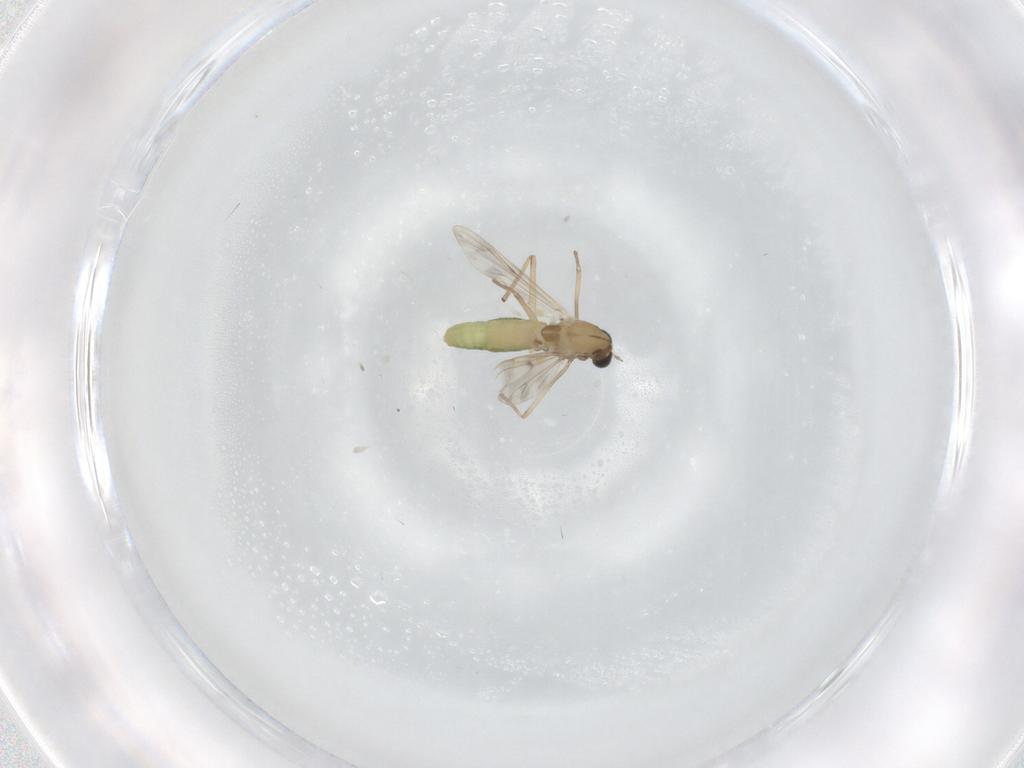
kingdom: Animalia
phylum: Arthropoda
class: Insecta
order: Diptera
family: Chironomidae
